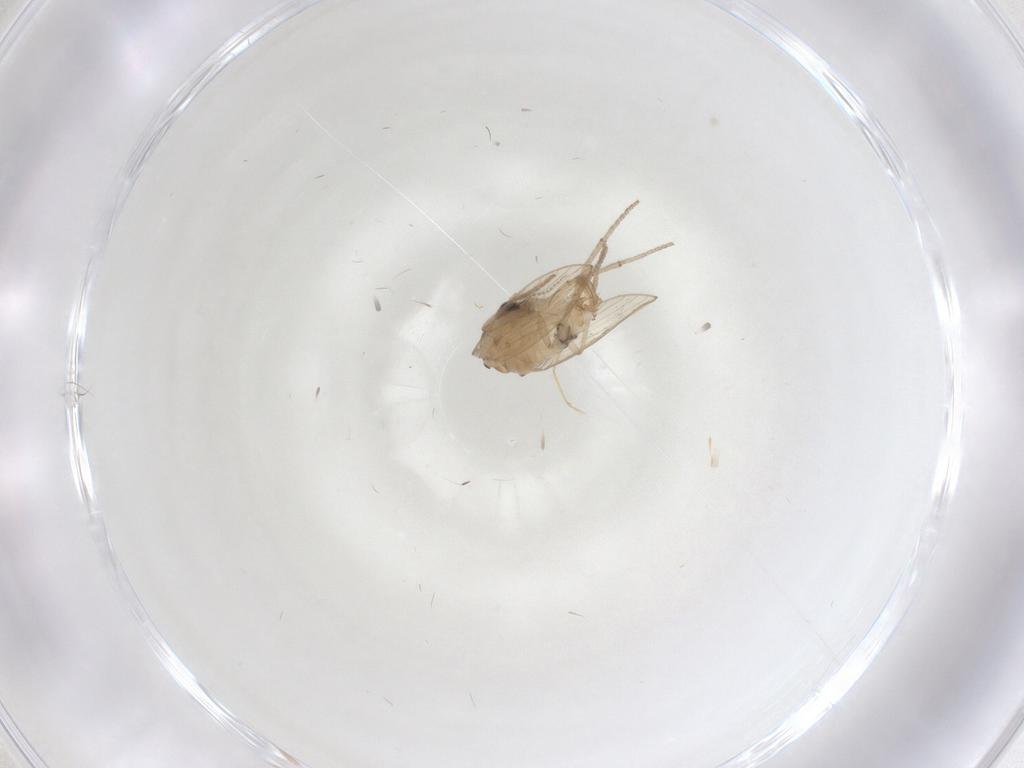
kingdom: Animalia
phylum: Arthropoda
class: Insecta
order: Diptera
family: Psychodidae
